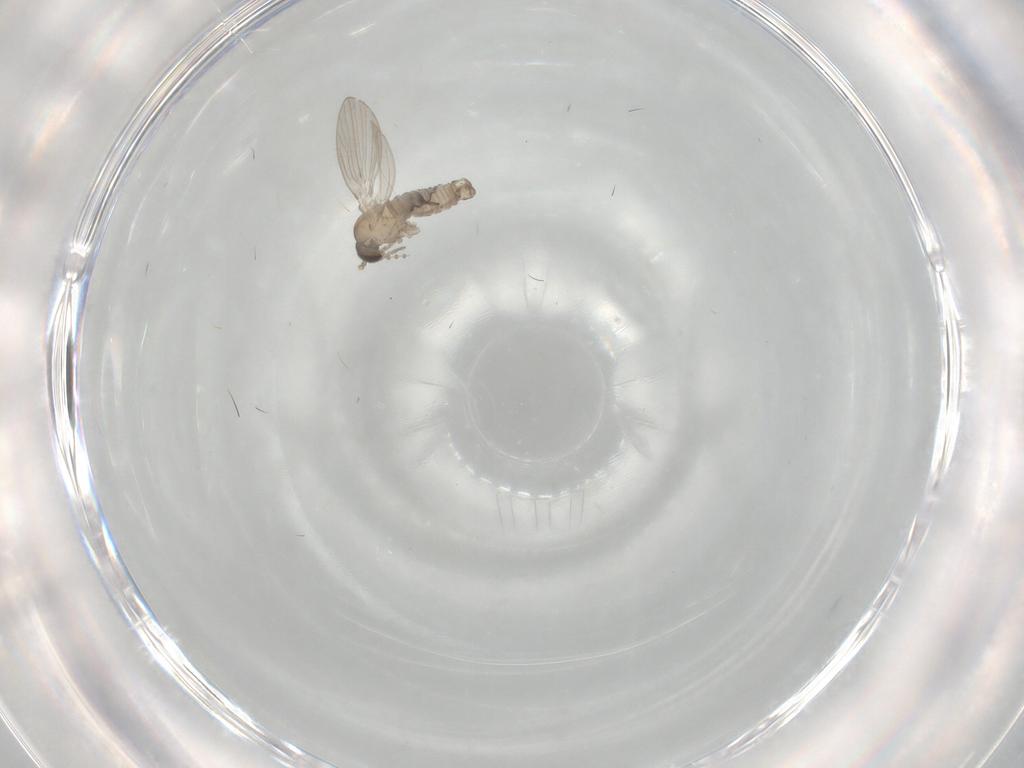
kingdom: Animalia
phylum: Arthropoda
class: Insecta
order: Diptera
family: Psychodidae
